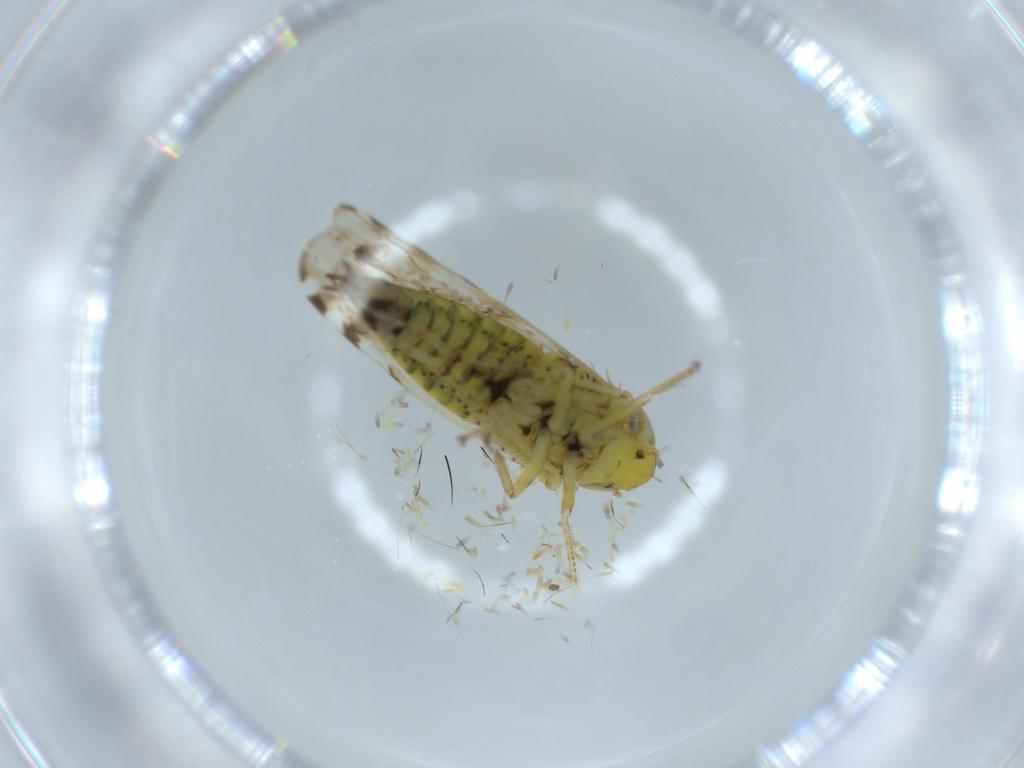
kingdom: Animalia
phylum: Arthropoda
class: Insecta
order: Hemiptera
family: Cicadellidae
